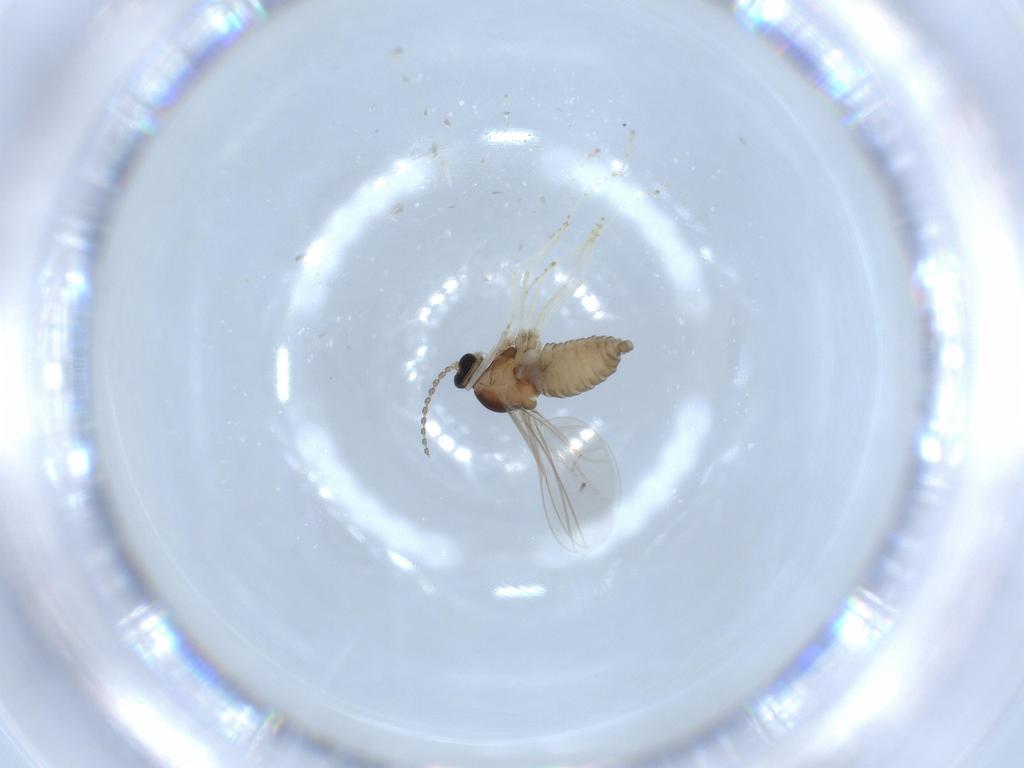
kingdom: Animalia
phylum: Arthropoda
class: Insecta
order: Diptera
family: Cecidomyiidae
